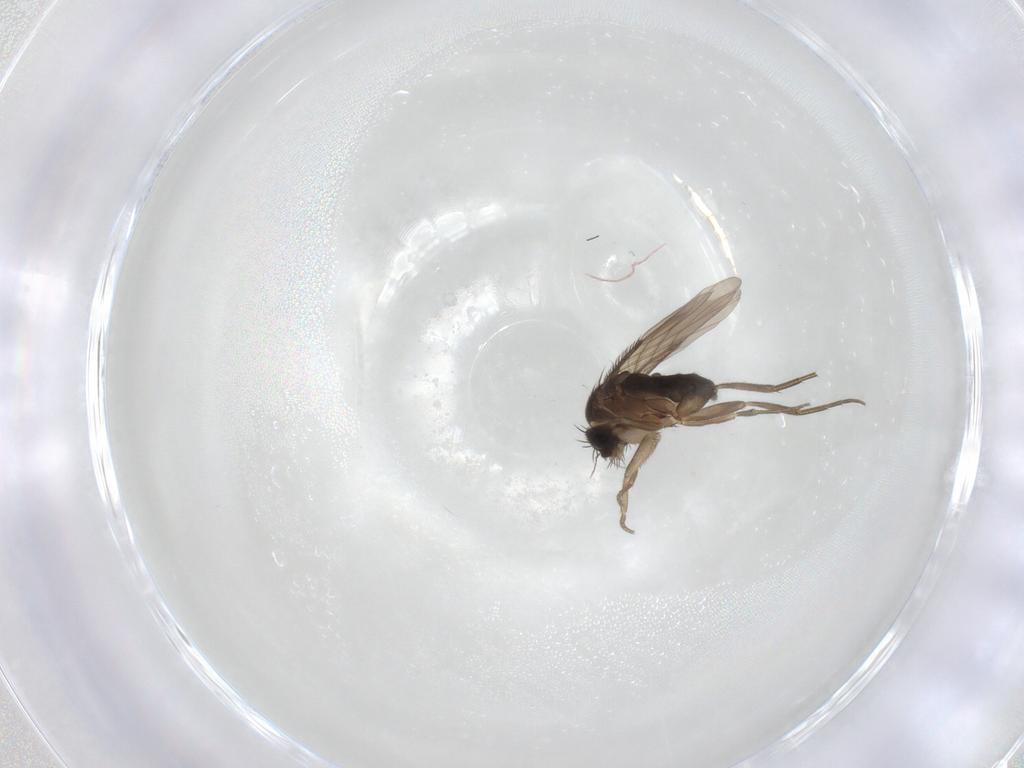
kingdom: Animalia
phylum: Arthropoda
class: Insecta
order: Diptera
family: Phoridae
